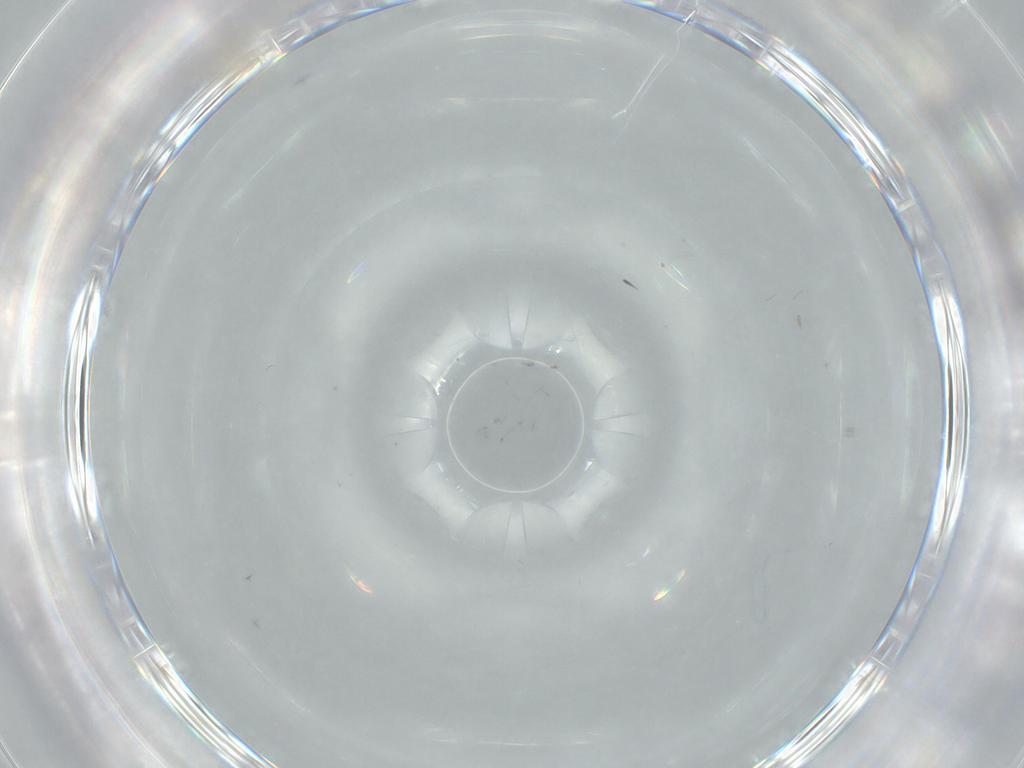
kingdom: Animalia
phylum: Arthropoda
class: Insecta
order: Diptera
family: Cecidomyiidae
